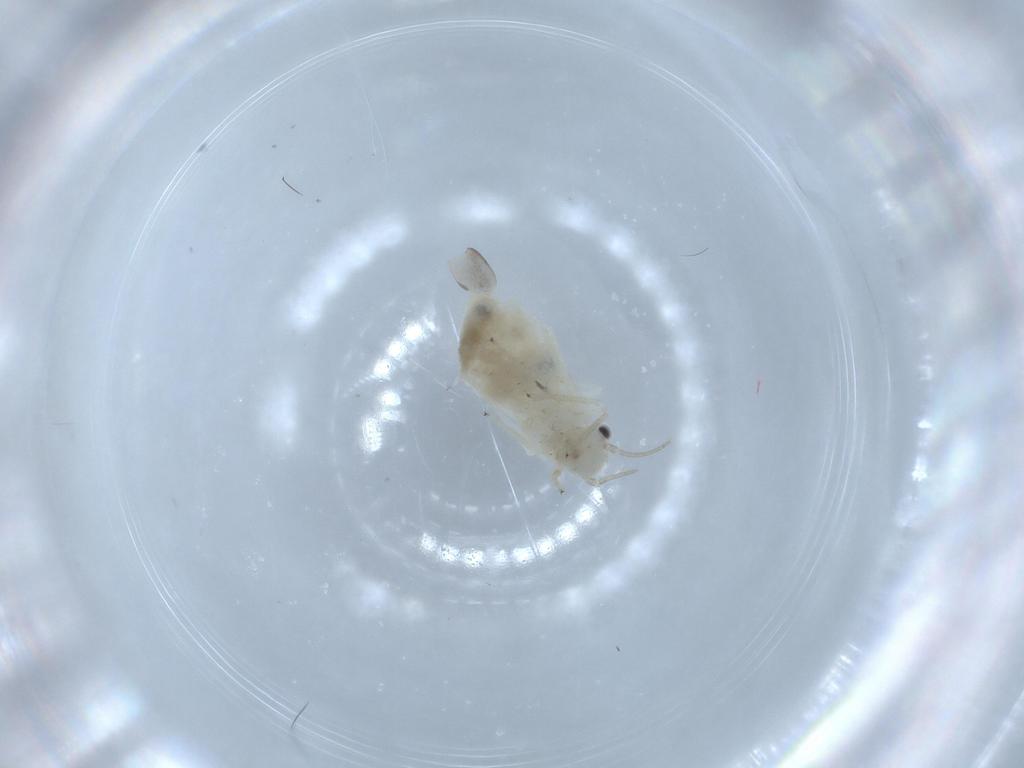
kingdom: Animalia
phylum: Arthropoda
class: Insecta
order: Psocodea
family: Caeciliusidae
